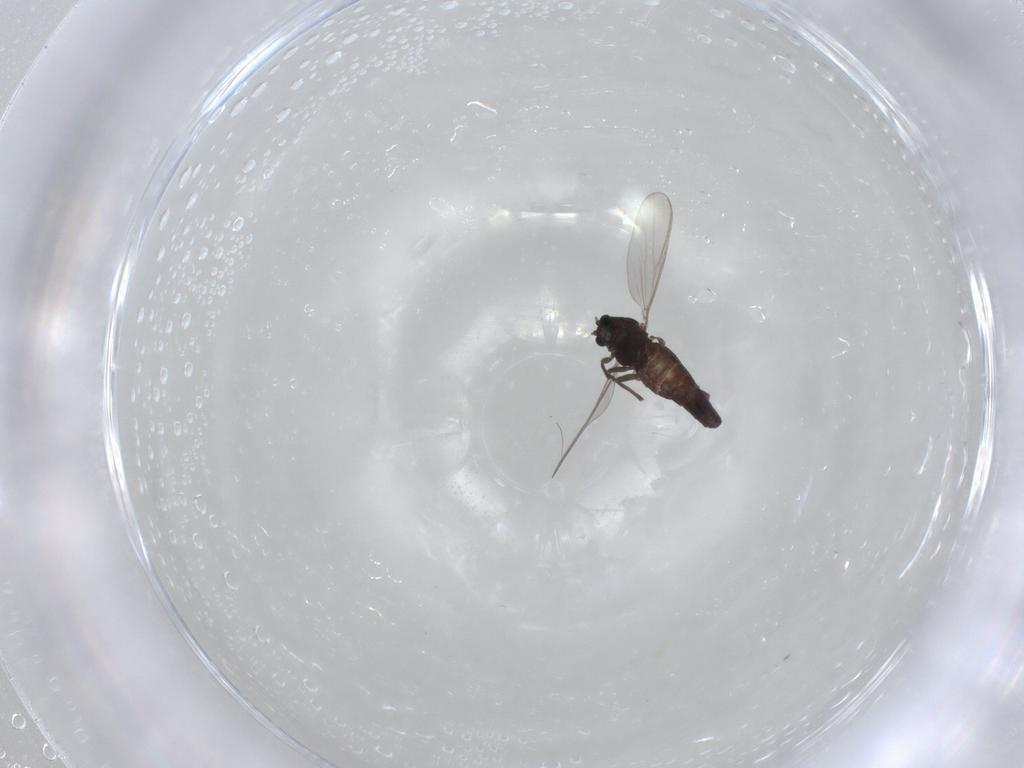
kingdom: Animalia
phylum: Arthropoda
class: Insecta
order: Diptera
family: Chironomidae
